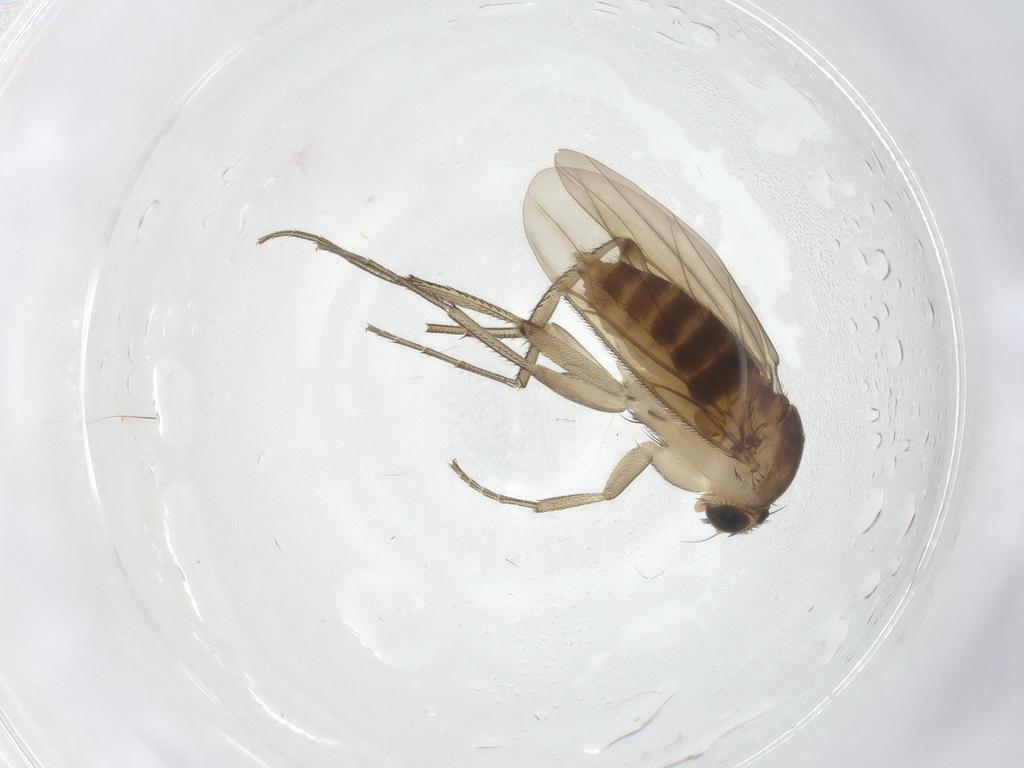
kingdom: Animalia
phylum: Arthropoda
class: Insecta
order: Diptera
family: Phoridae
